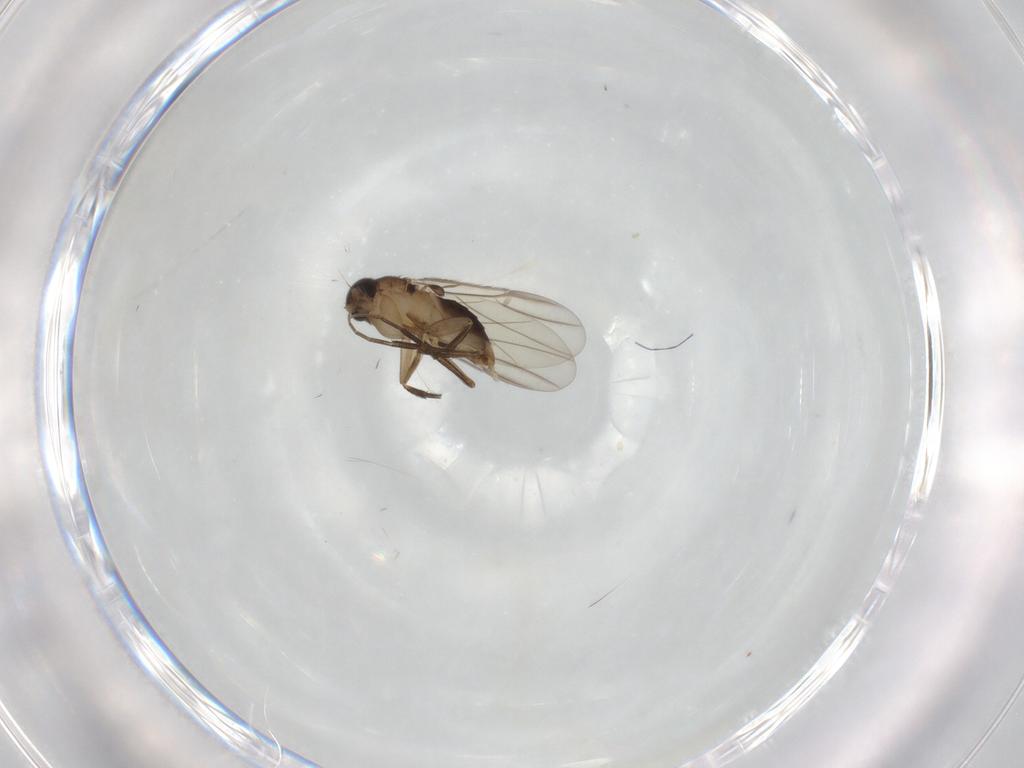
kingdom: Animalia
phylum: Arthropoda
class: Insecta
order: Diptera
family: Phoridae
